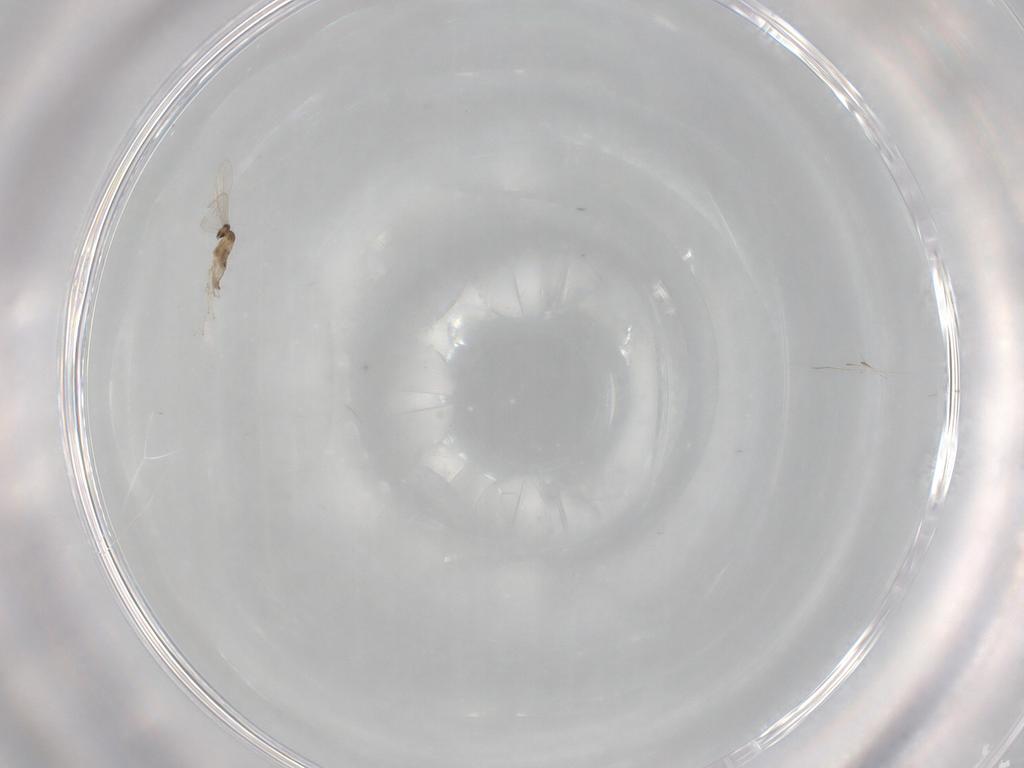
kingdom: Animalia
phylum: Arthropoda
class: Insecta
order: Diptera
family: Cecidomyiidae
